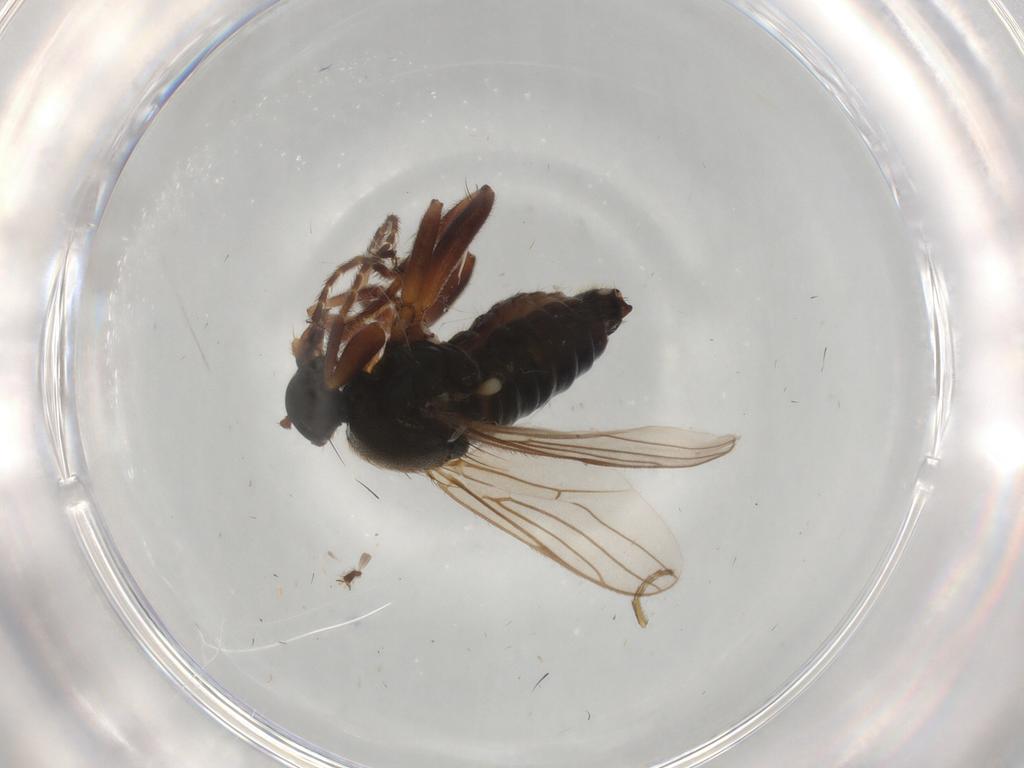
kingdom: Animalia
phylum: Arthropoda
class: Insecta
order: Diptera
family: Hybotidae
